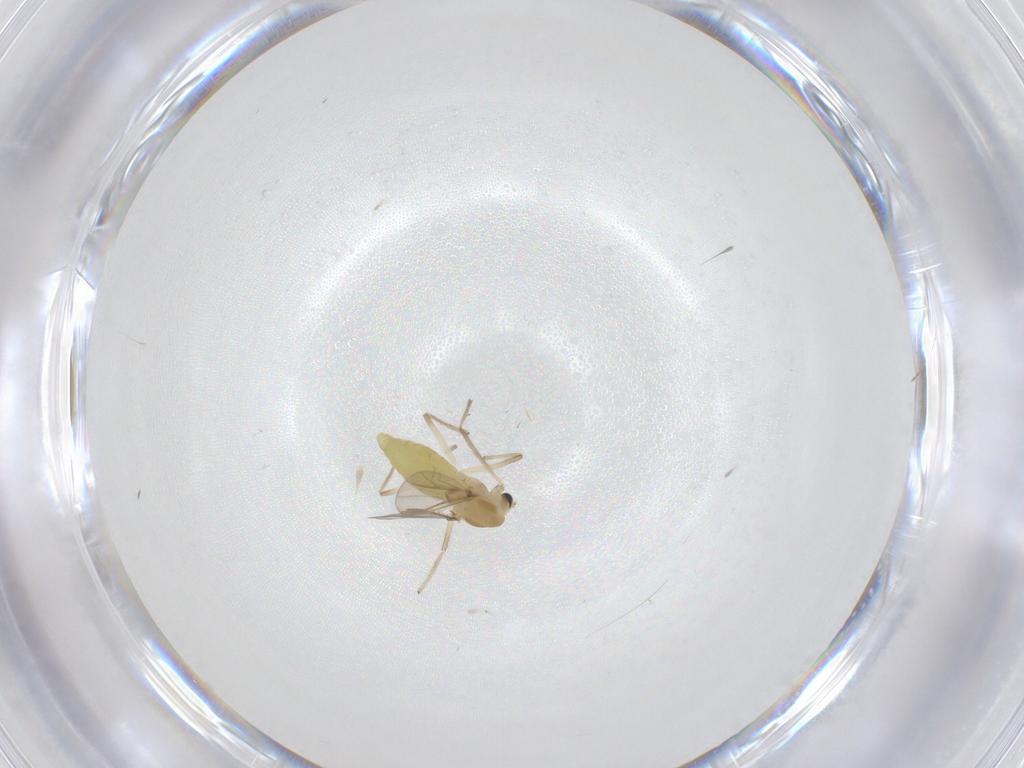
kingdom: Animalia
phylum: Arthropoda
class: Insecta
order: Diptera
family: Chironomidae
